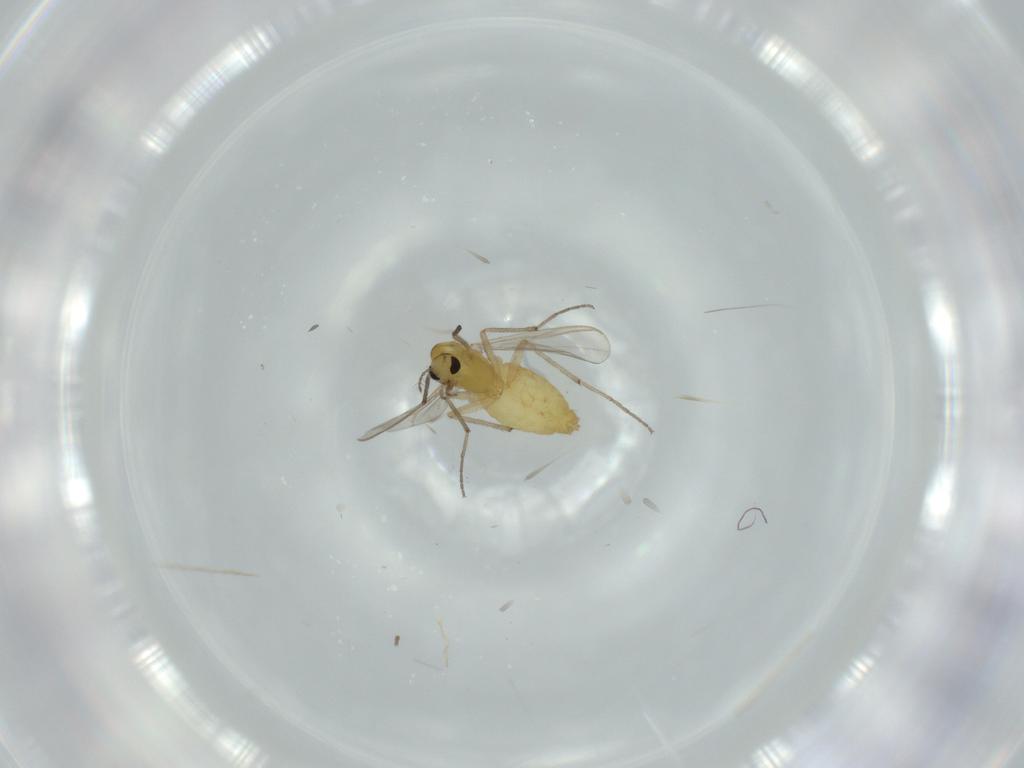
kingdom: Animalia
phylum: Arthropoda
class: Insecta
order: Diptera
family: Chironomidae
